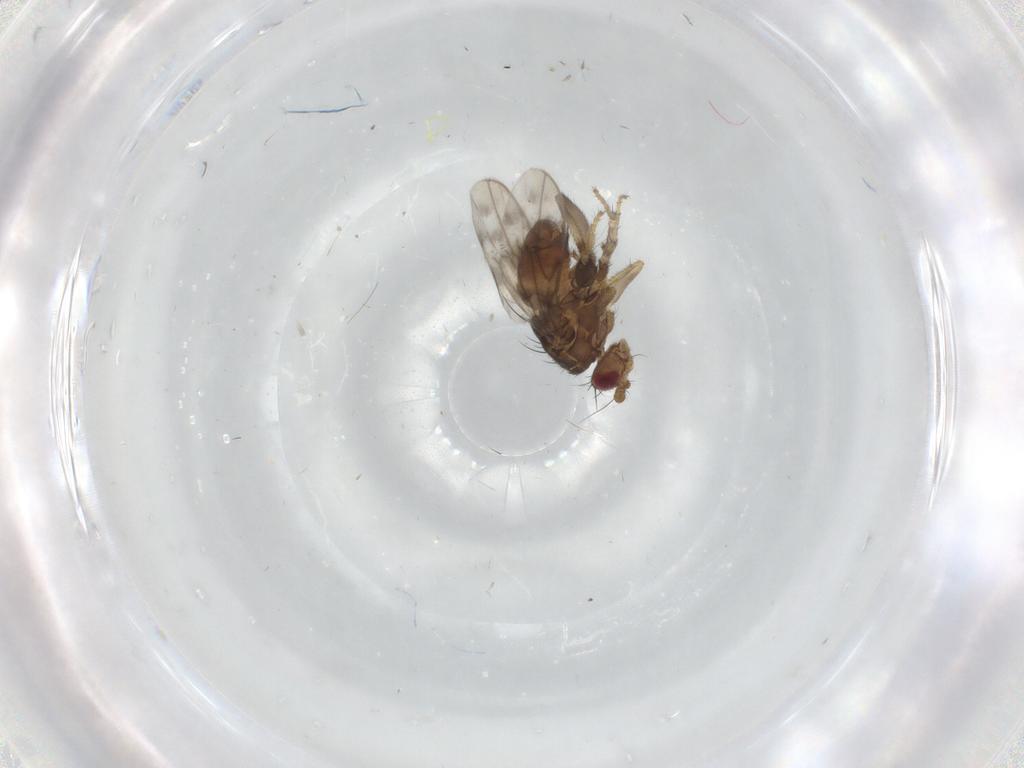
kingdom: Animalia
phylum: Arthropoda
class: Insecta
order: Diptera
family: Sphaeroceridae
